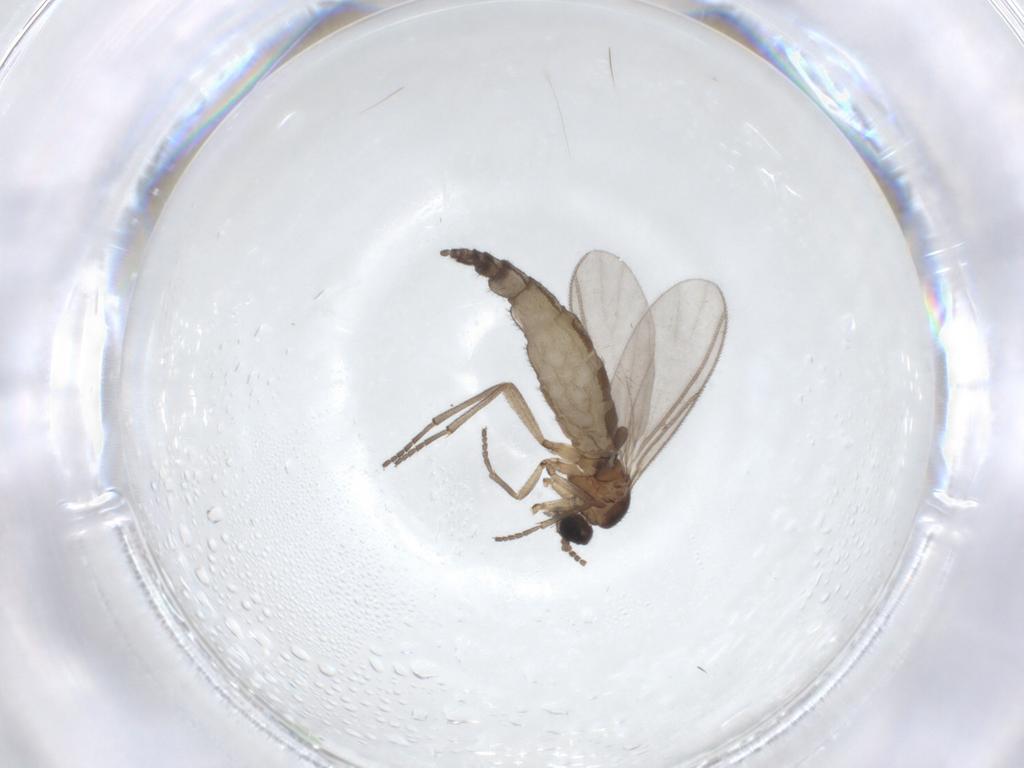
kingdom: Animalia
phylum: Arthropoda
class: Insecta
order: Diptera
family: Sciaridae
